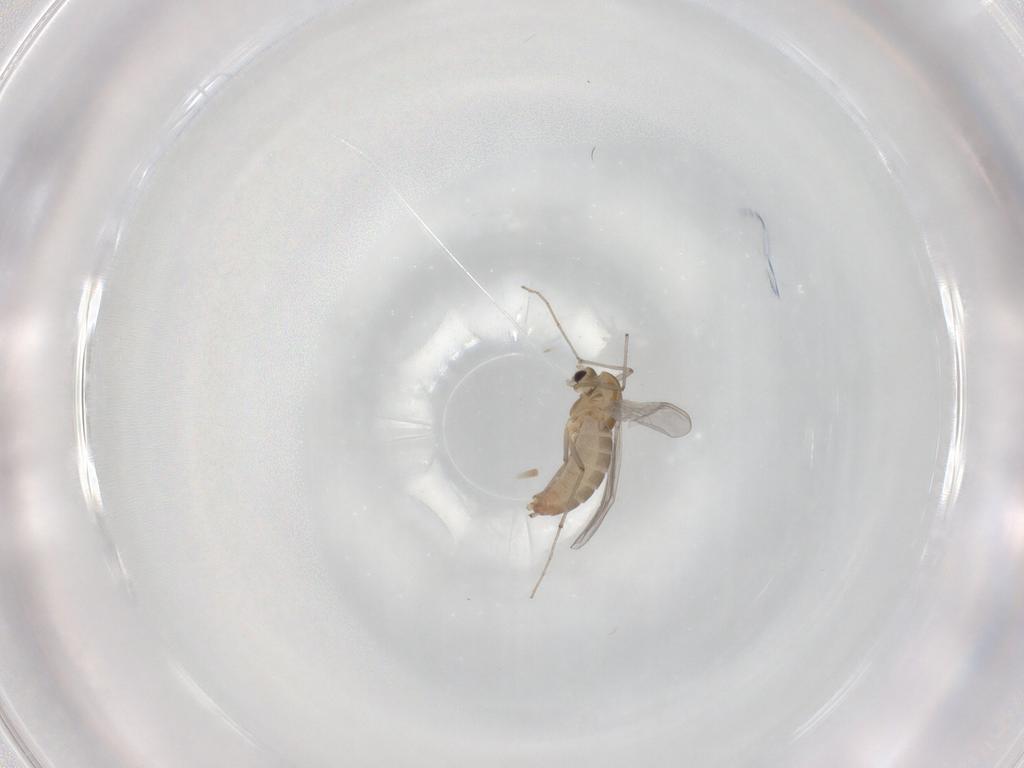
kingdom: Animalia
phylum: Arthropoda
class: Insecta
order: Diptera
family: Chironomidae
